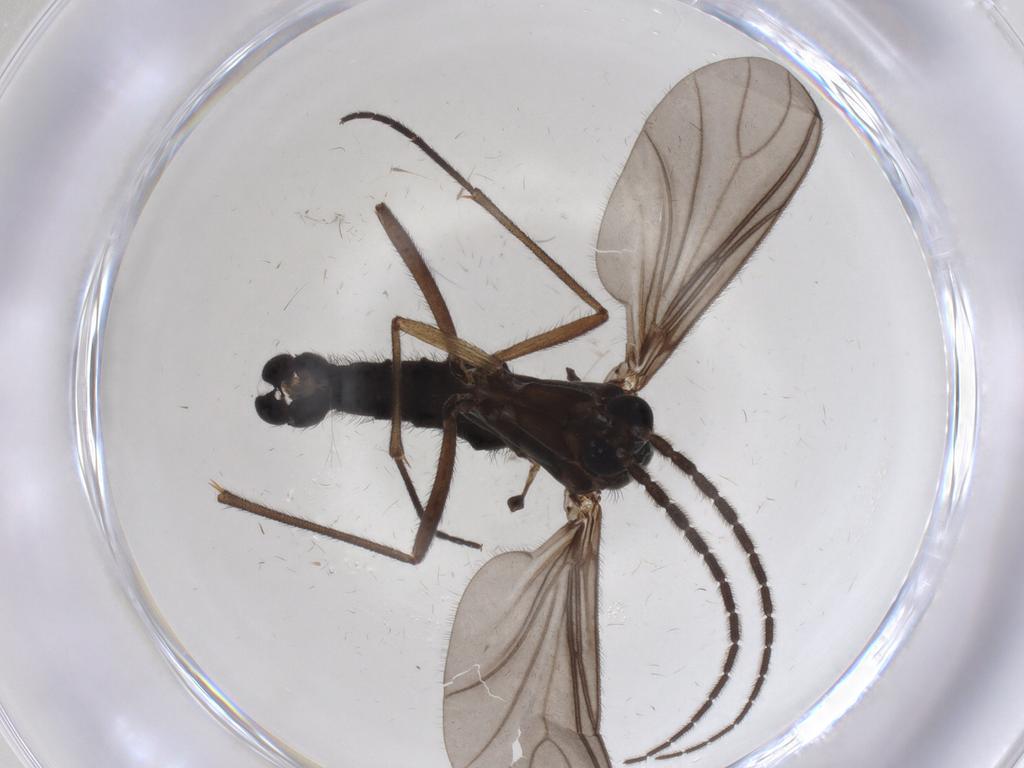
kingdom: Animalia
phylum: Arthropoda
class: Insecta
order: Diptera
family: Sciaridae
